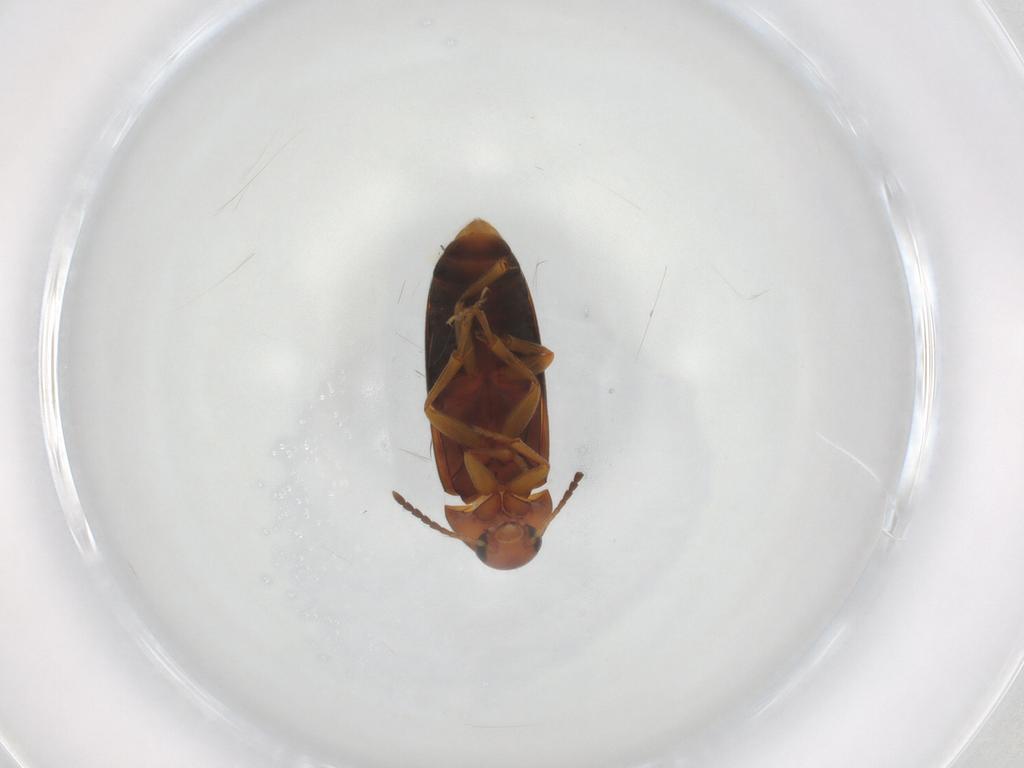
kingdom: Animalia
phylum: Arthropoda
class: Insecta
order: Coleoptera
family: Scraptiidae
